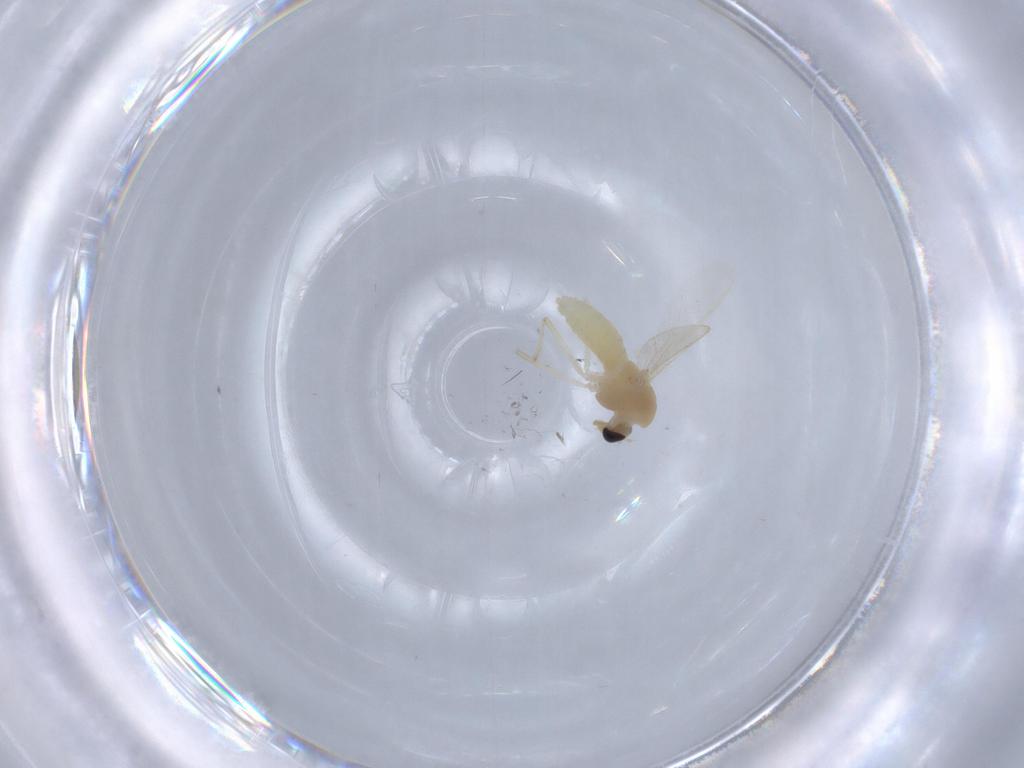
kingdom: Animalia
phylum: Arthropoda
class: Insecta
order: Diptera
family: Chironomidae
